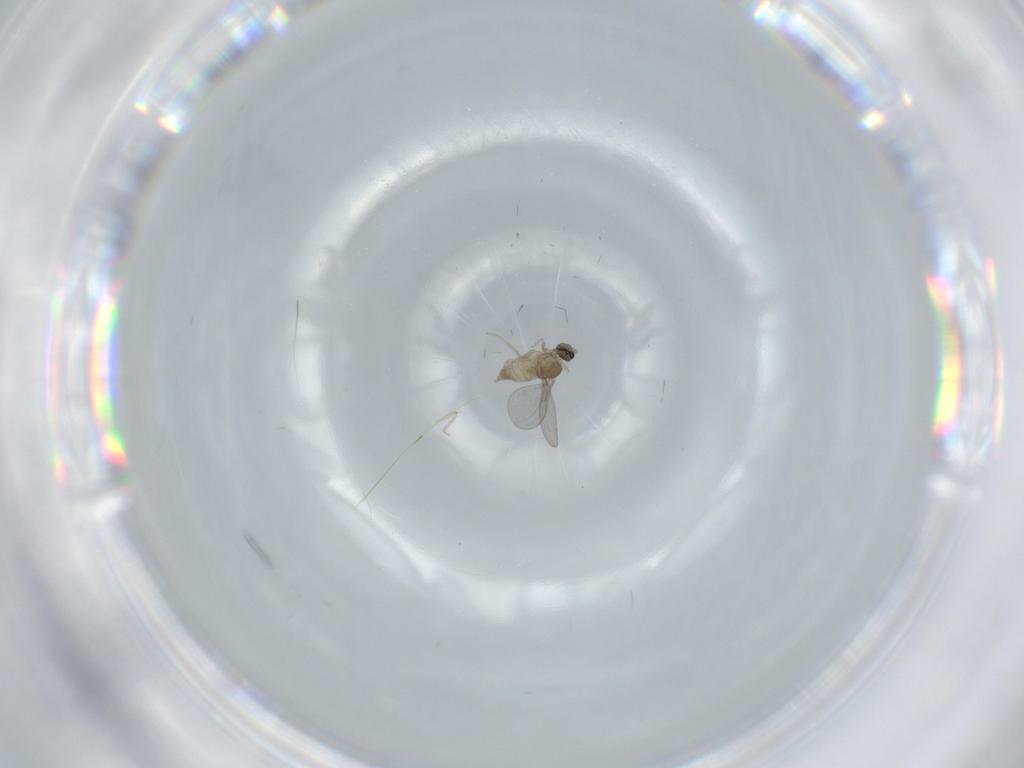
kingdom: Animalia
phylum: Arthropoda
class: Insecta
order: Diptera
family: Cecidomyiidae
